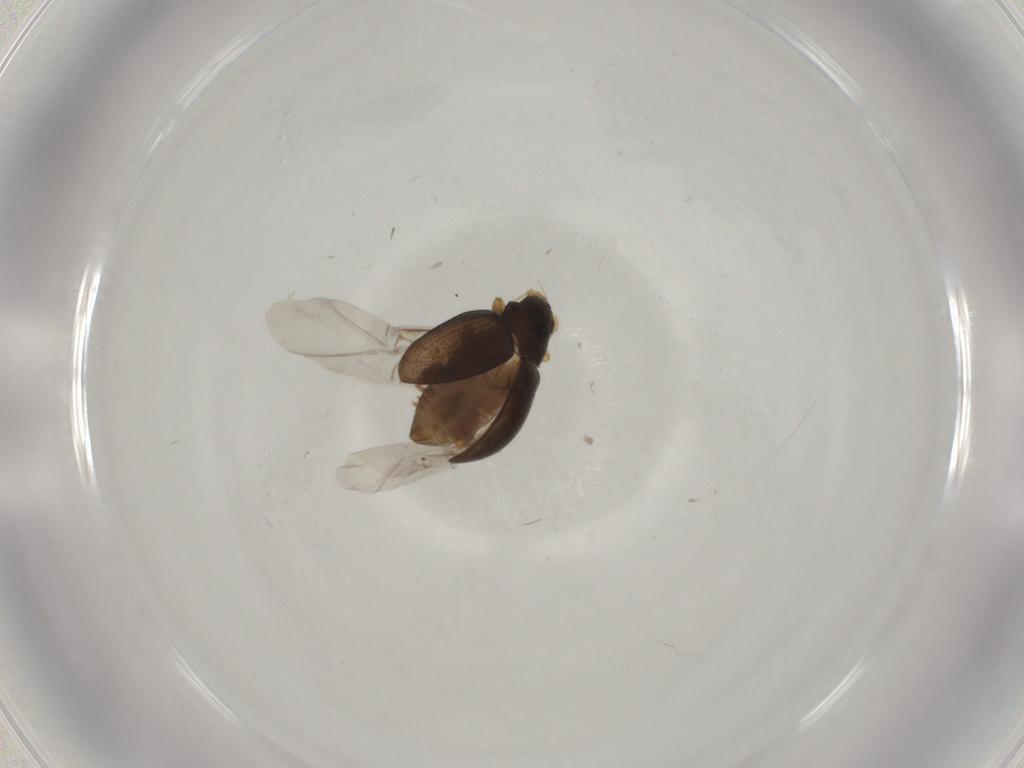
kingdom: Animalia
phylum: Arthropoda
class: Insecta
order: Coleoptera
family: Chrysomelidae
